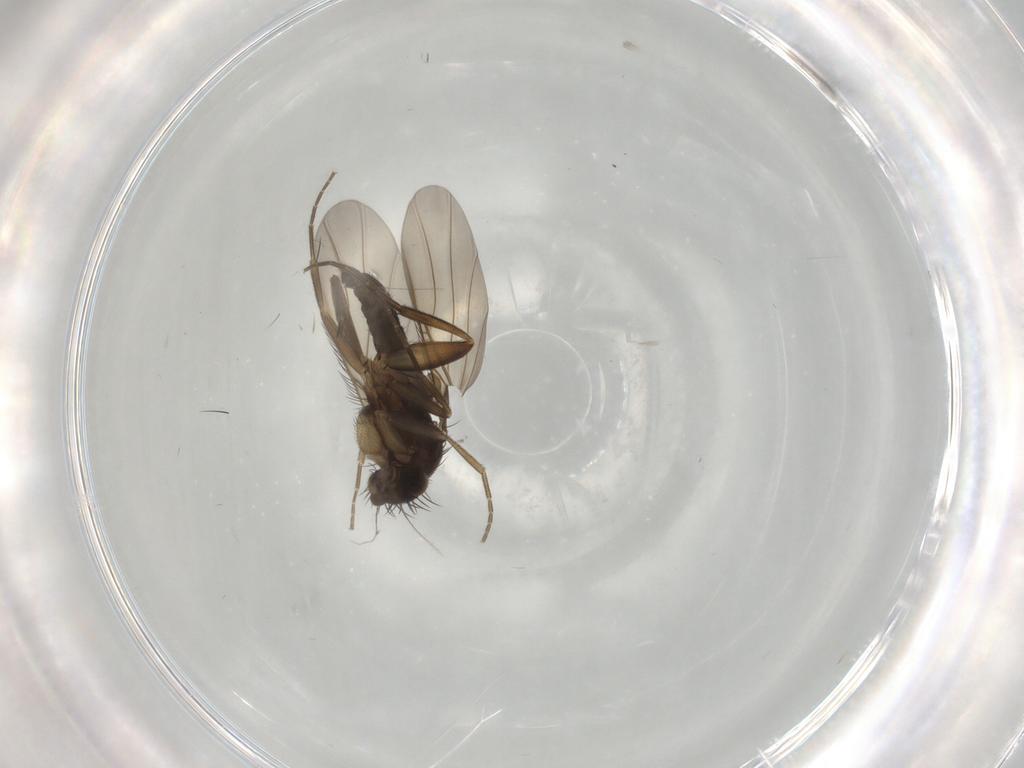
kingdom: Animalia
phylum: Arthropoda
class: Insecta
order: Diptera
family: Phoridae
